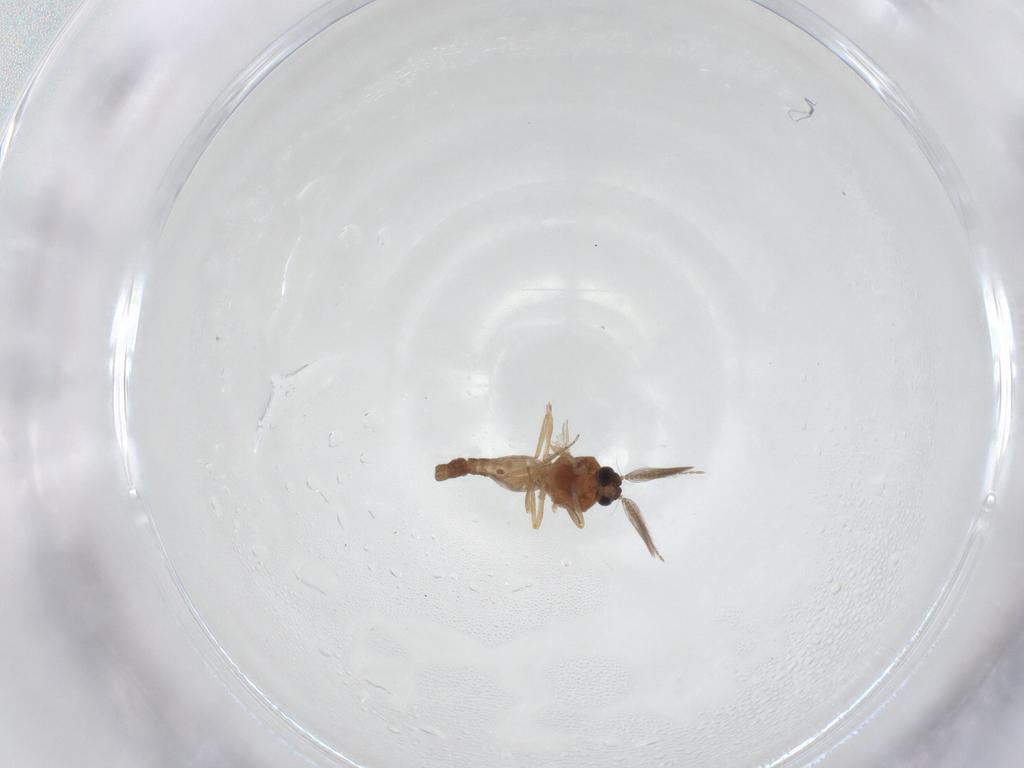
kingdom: Animalia
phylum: Arthropoda
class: Insecta
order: Diptera
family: Ceratopogonidae
